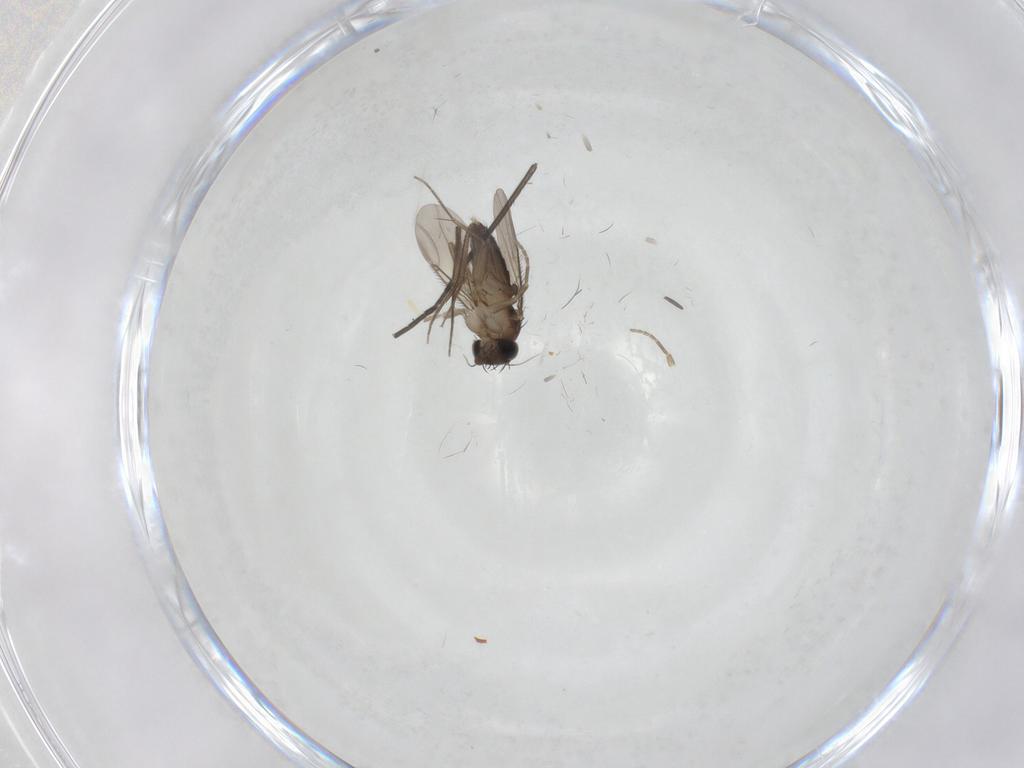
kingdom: Animalia
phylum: Arthropoda
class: Insecta
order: Diptera
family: Phoridae
